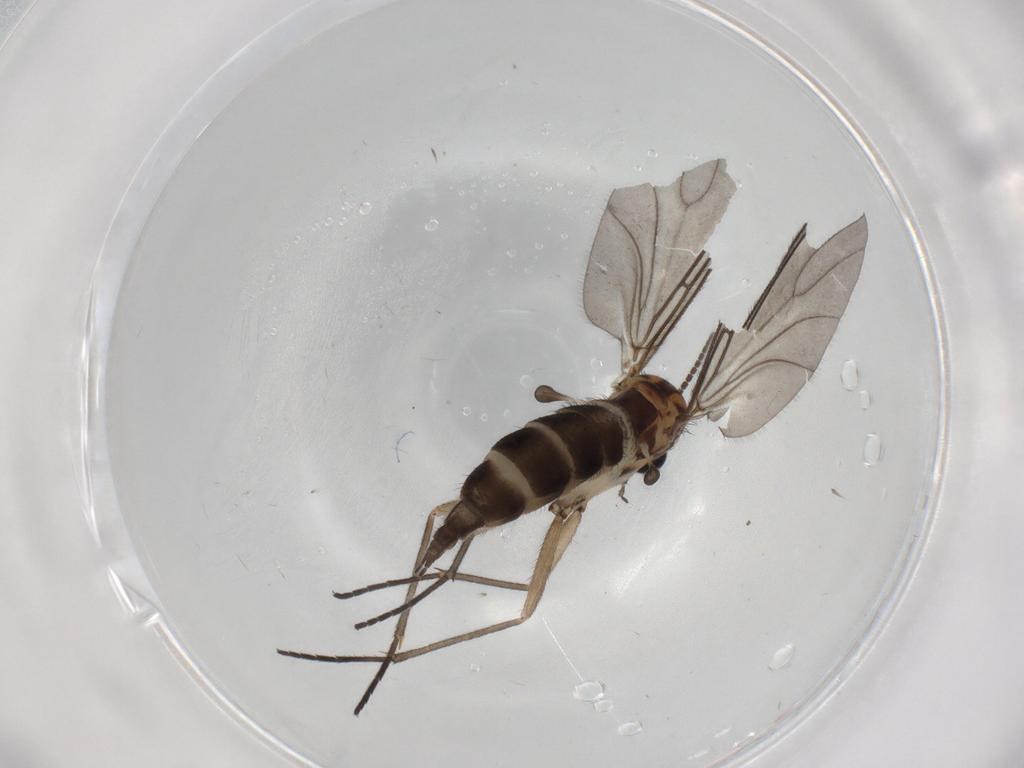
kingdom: Animalia
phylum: Arthropoda
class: Insecta
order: Diptera
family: Sciaridae
